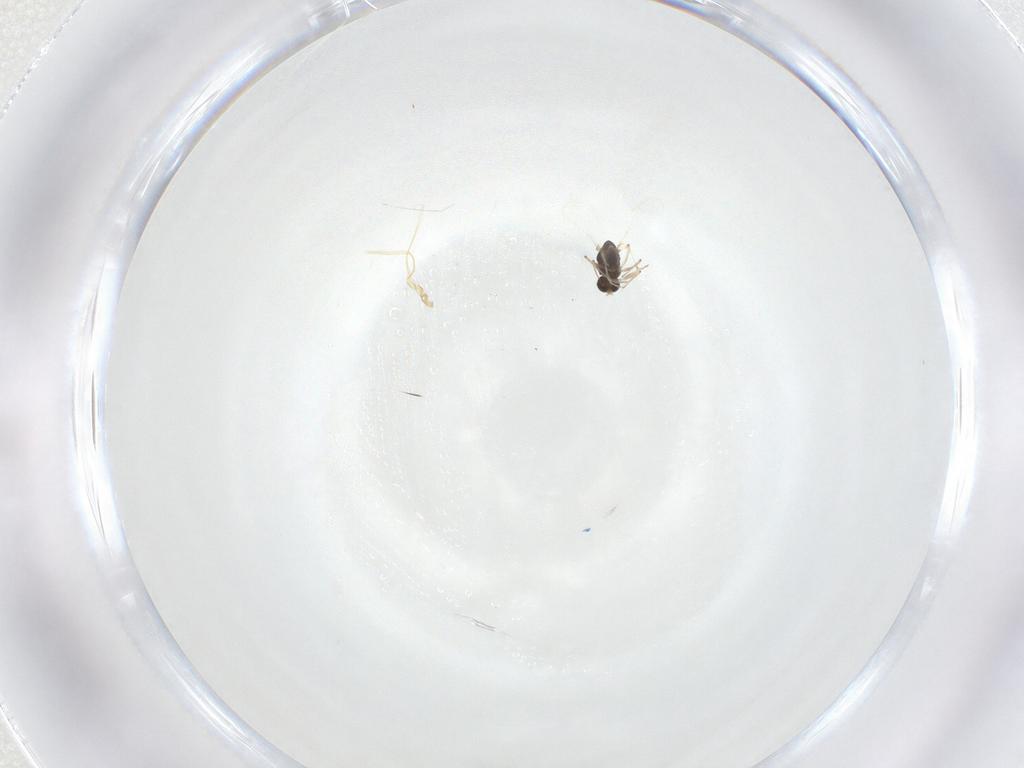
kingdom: Animalia
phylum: Arthropoda
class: Insecta
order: Diptera
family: Chironomidae
